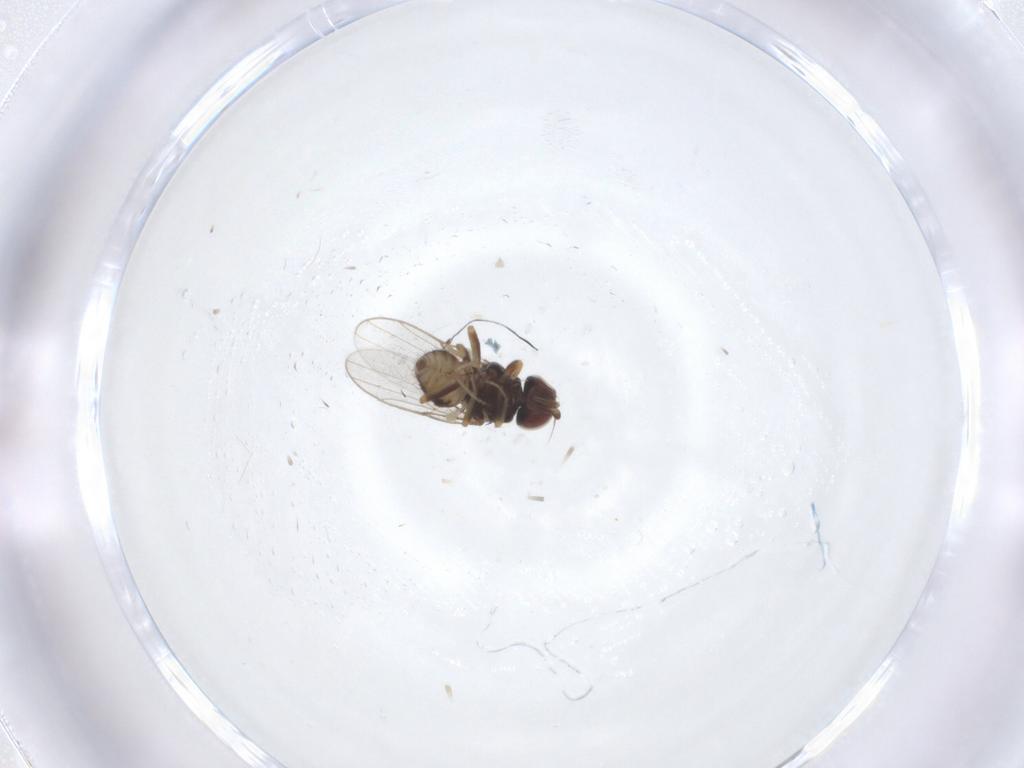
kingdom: Animalia
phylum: Arthropoda
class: Insecta
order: Diptera
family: Chloropidae
